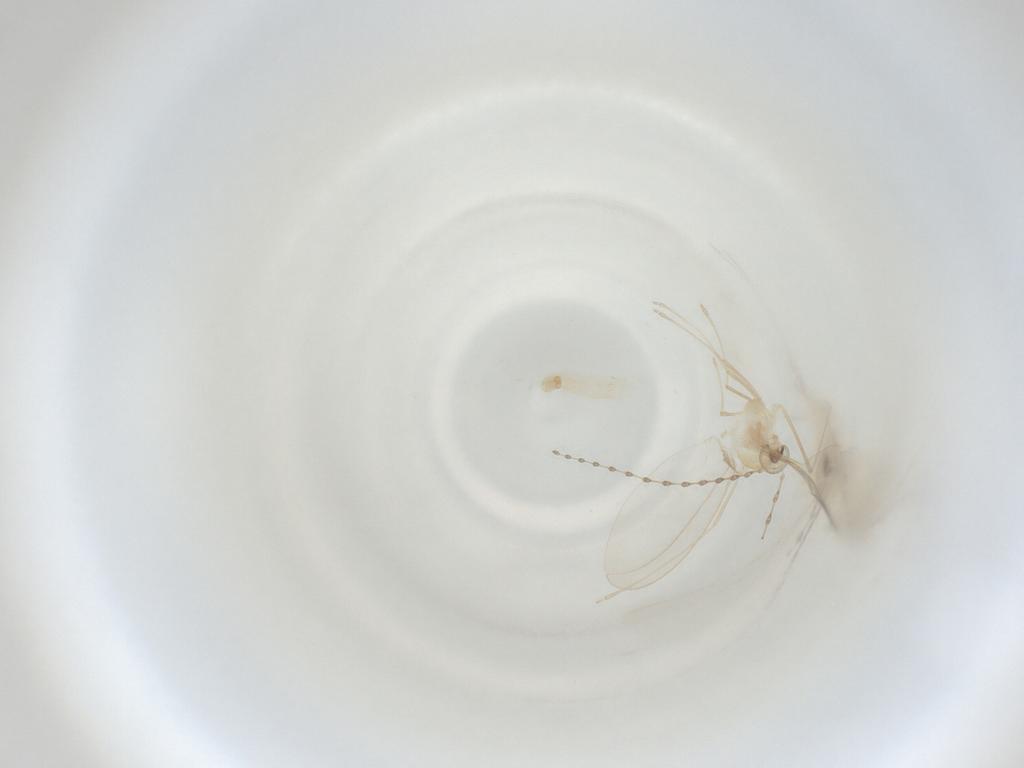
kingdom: Animalia
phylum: Arthropoda
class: Insecta
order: Diptera
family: Cecidomyiidae
